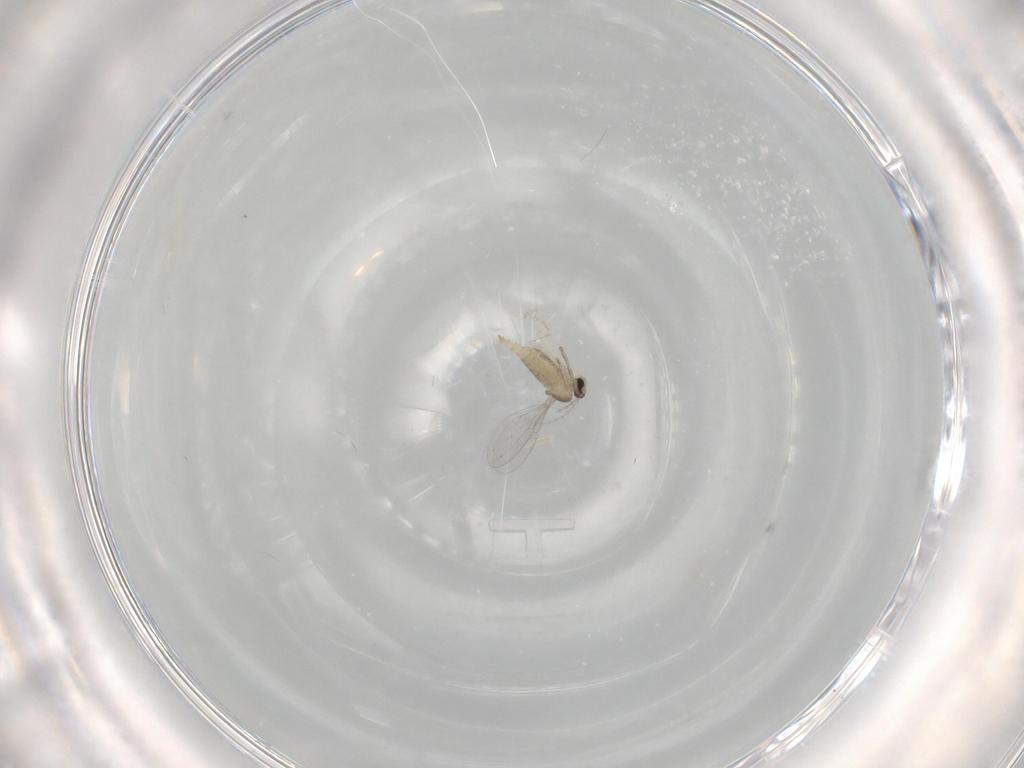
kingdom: Animalia
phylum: Arthropoda
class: Insecta
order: Diptera
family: Cecidomyiidae
